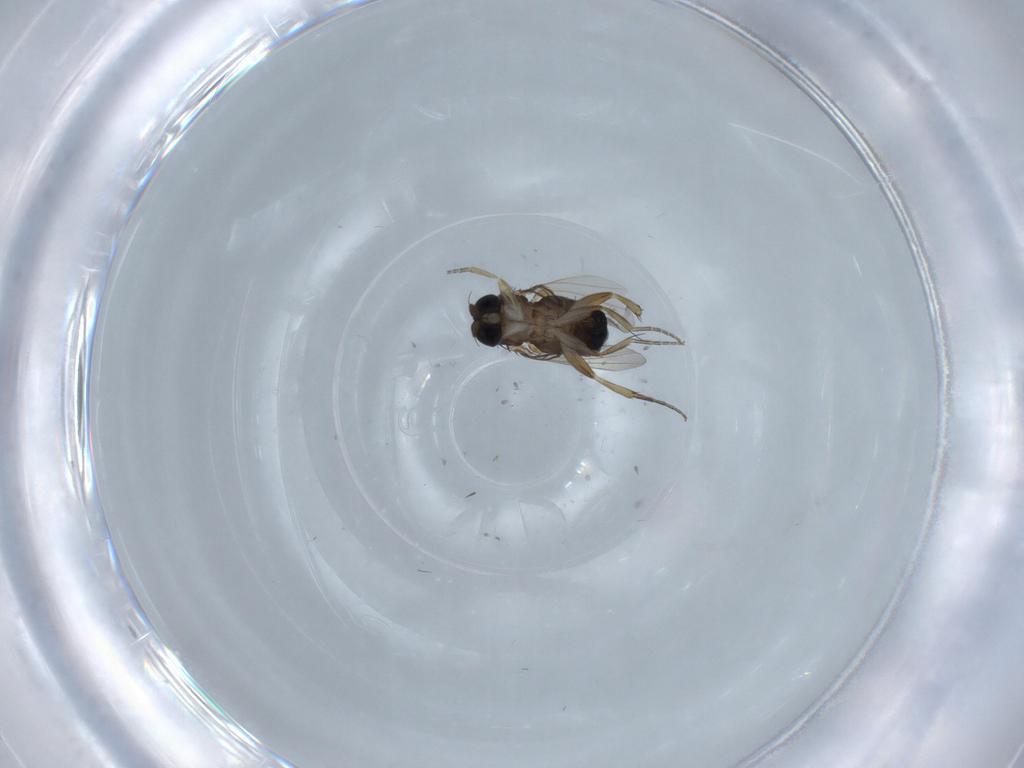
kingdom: Animalia
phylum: Arthropoda
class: Insecta
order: Diptera
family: Phoridae
